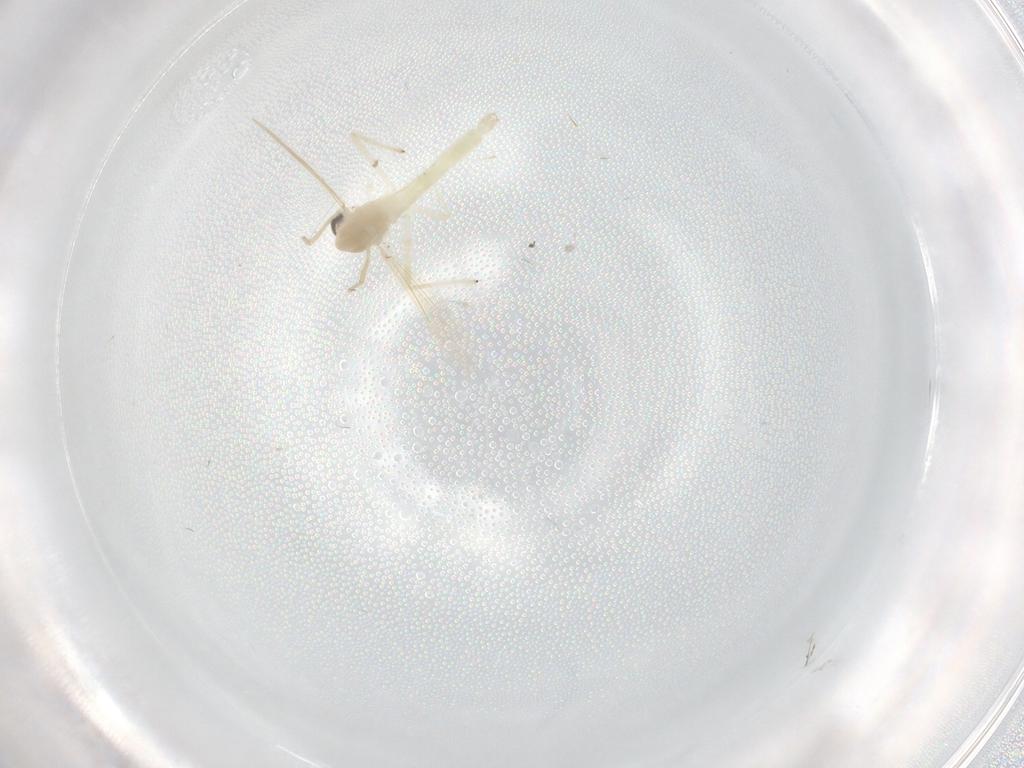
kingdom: Animalia
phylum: Arthropoda
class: Insecta
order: Diptera
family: Chironomidae
